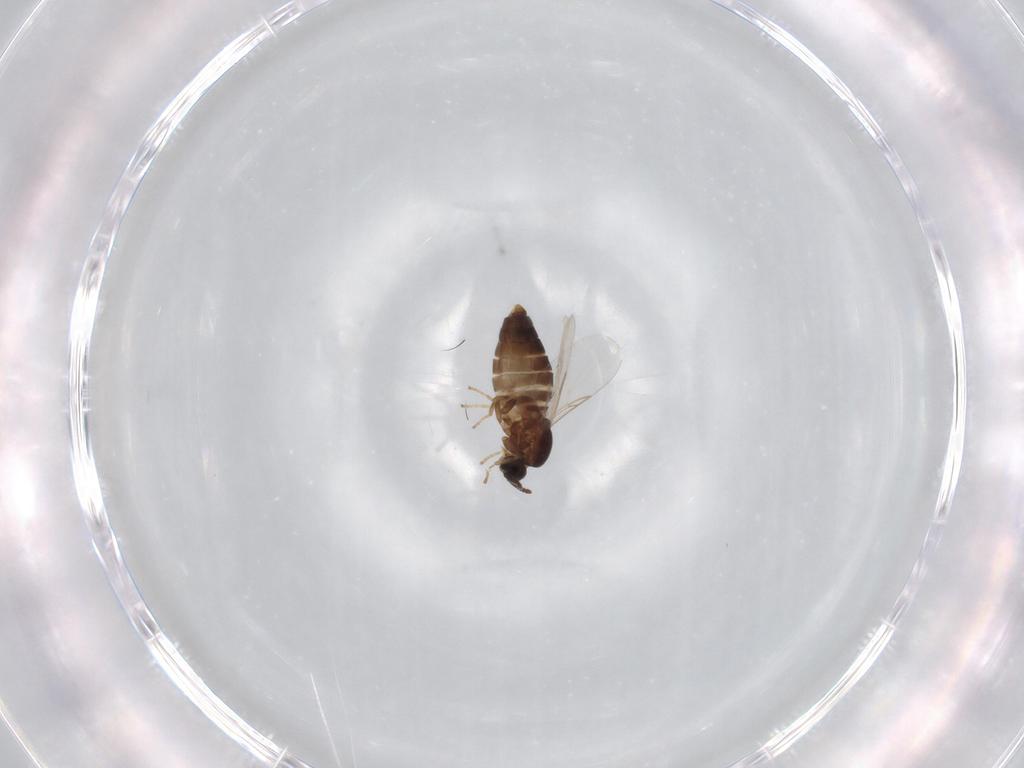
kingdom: Animalia
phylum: Arthropoda
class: Insecta
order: Diptera
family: Scatopsidae
